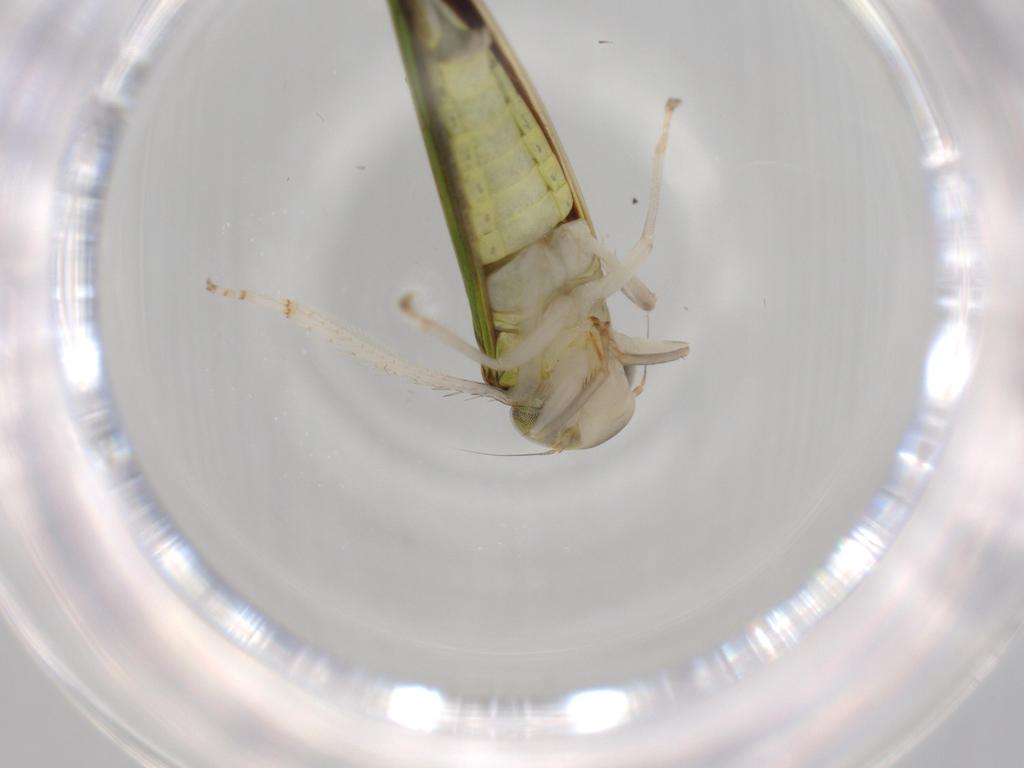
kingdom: Animalia
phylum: Arthropoda
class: Insecta
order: Hemiptera
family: Cicadellidae
